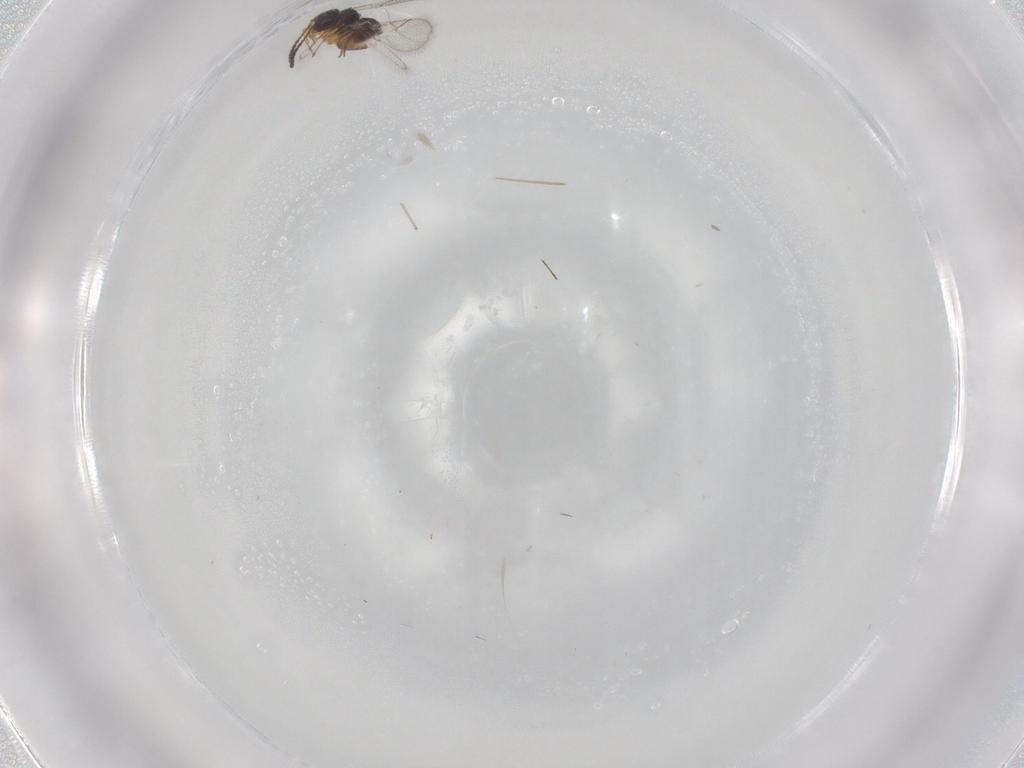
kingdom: Animalia
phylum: Arthropoda
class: Insecta
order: Diptera
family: Cecidomyiidae
